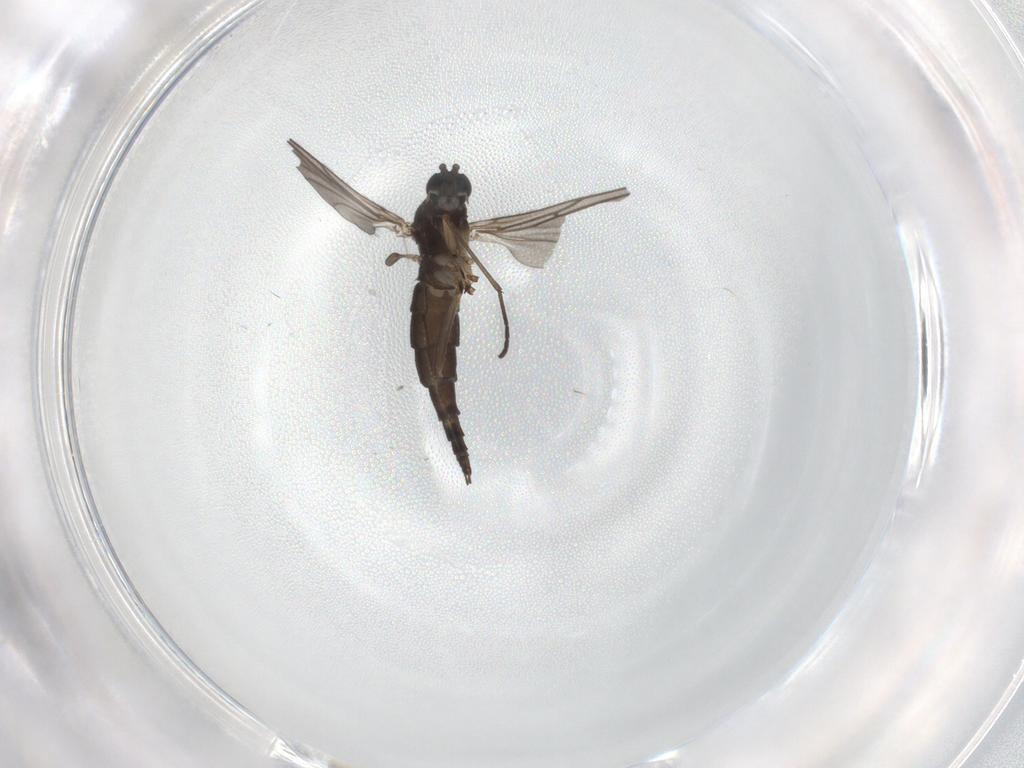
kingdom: Animalia
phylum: Arthropoda
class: Insecta
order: Diptera
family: Sciaridae
